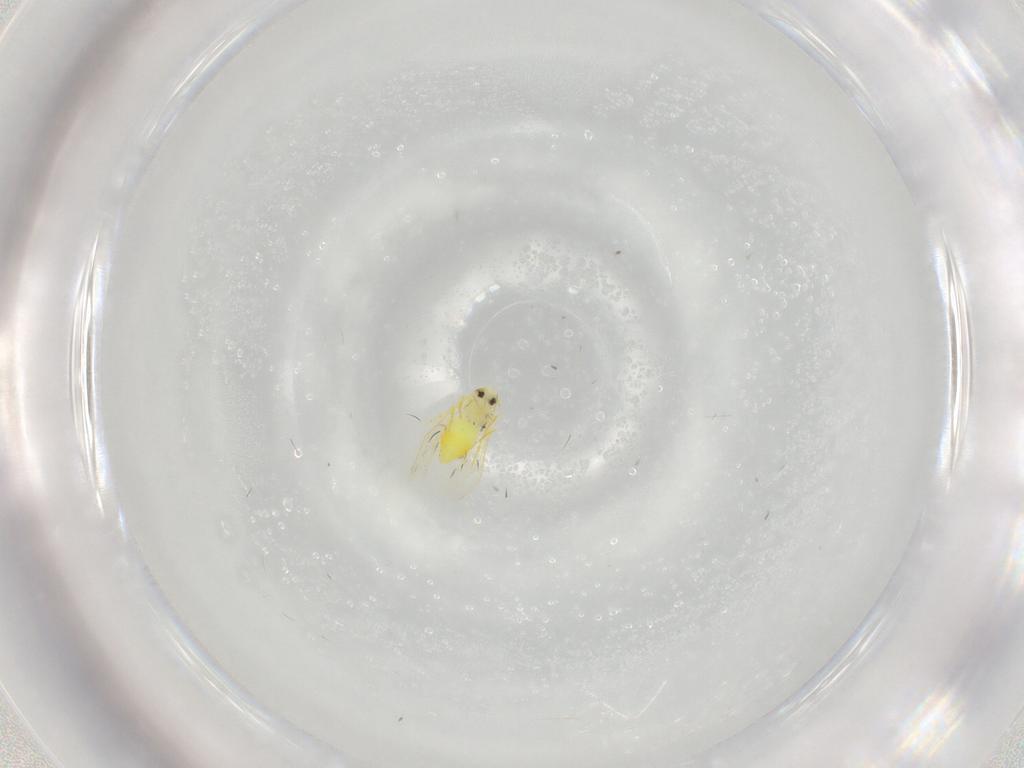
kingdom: Animalia
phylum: Arthropoda
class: Insecta
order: Hemiptera
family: Aleyrodidae
